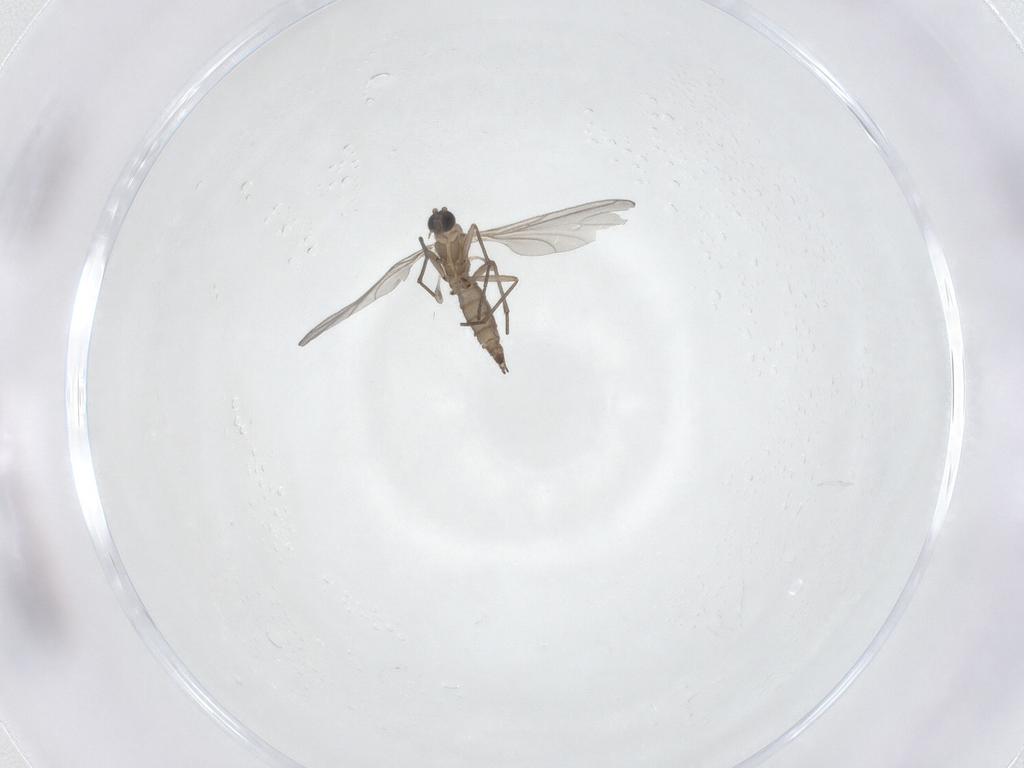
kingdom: Animalia
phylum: Arthropoda
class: Insecta
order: Diptera
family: Sciaridae
